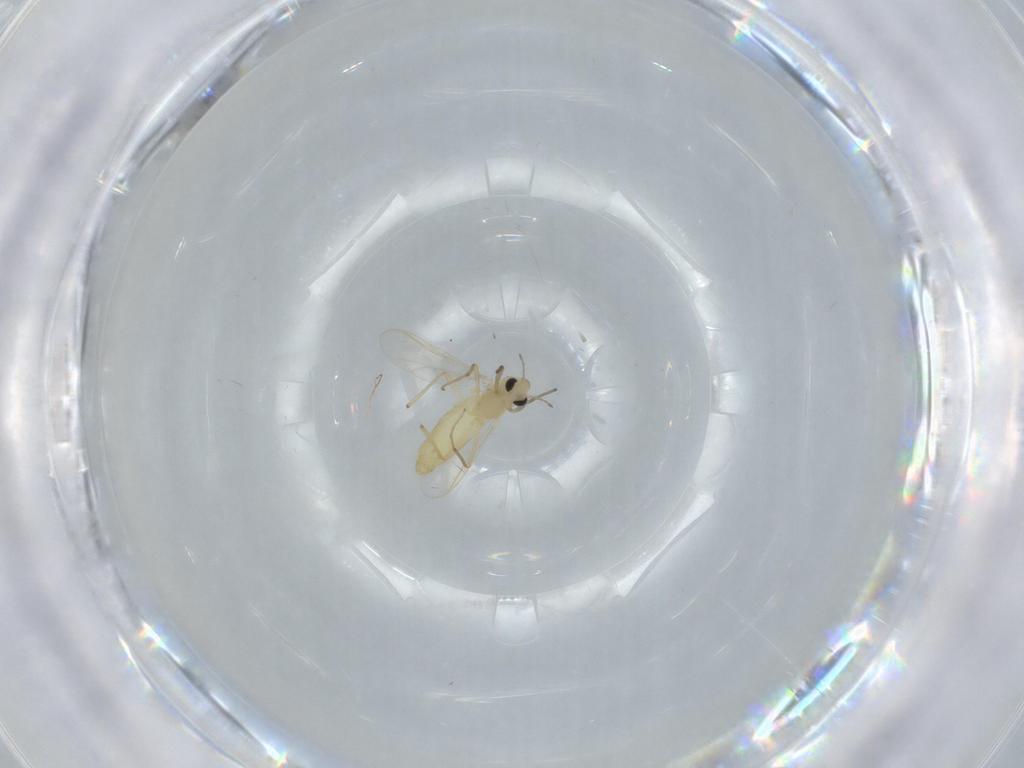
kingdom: Animalia
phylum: Arthropoda
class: Insecta
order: Diptera
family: Chironomidae
